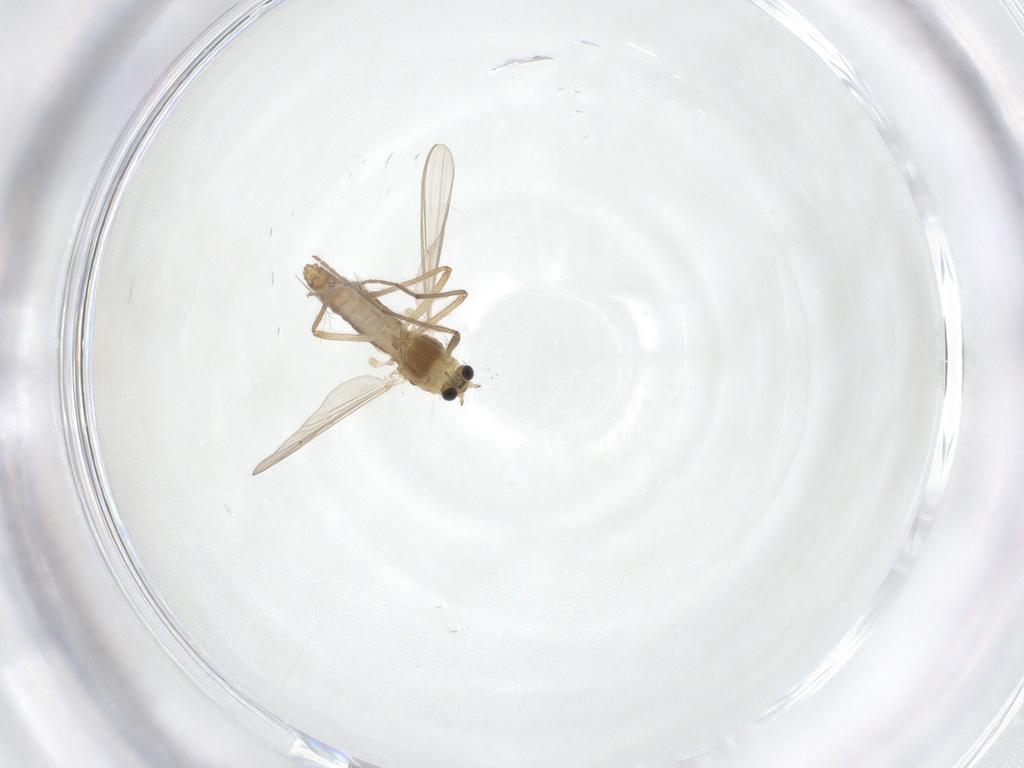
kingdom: Animalia
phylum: Arthropoda
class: Insecta
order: Diptera
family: Chironomidae
